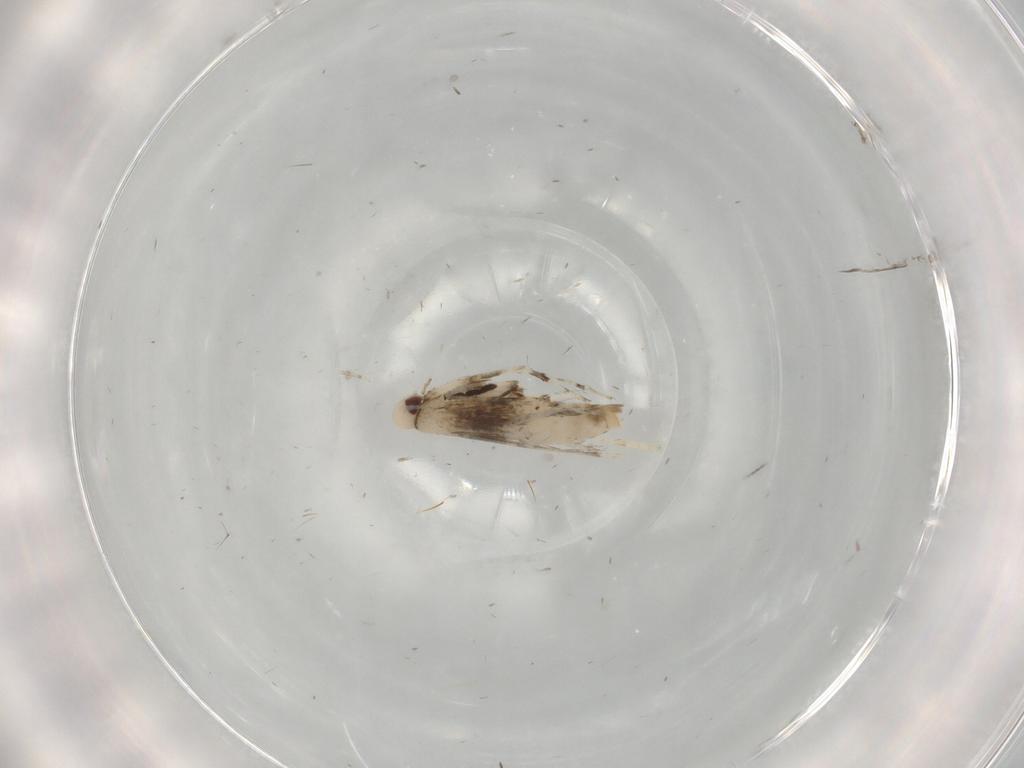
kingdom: Animalia
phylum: Arthropoda
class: Insecta
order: Lepidoptera
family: Gracillariidae
